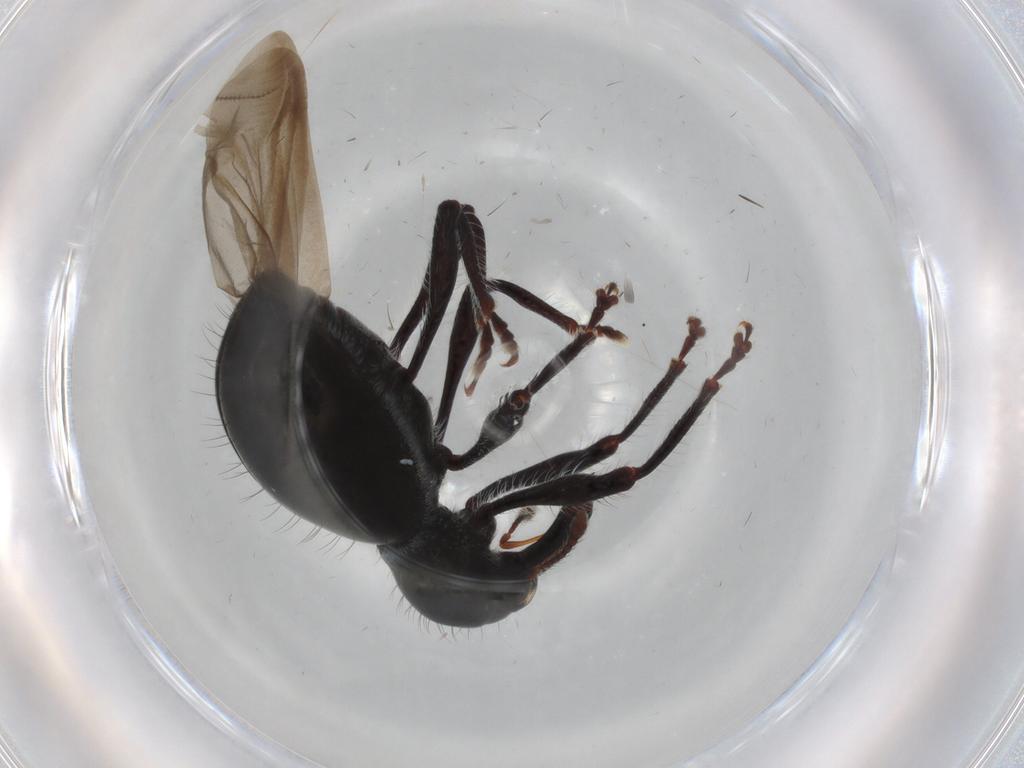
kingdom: Animalia
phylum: Arthropoda
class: Insecta
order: Coleoptera
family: Curculionidae
